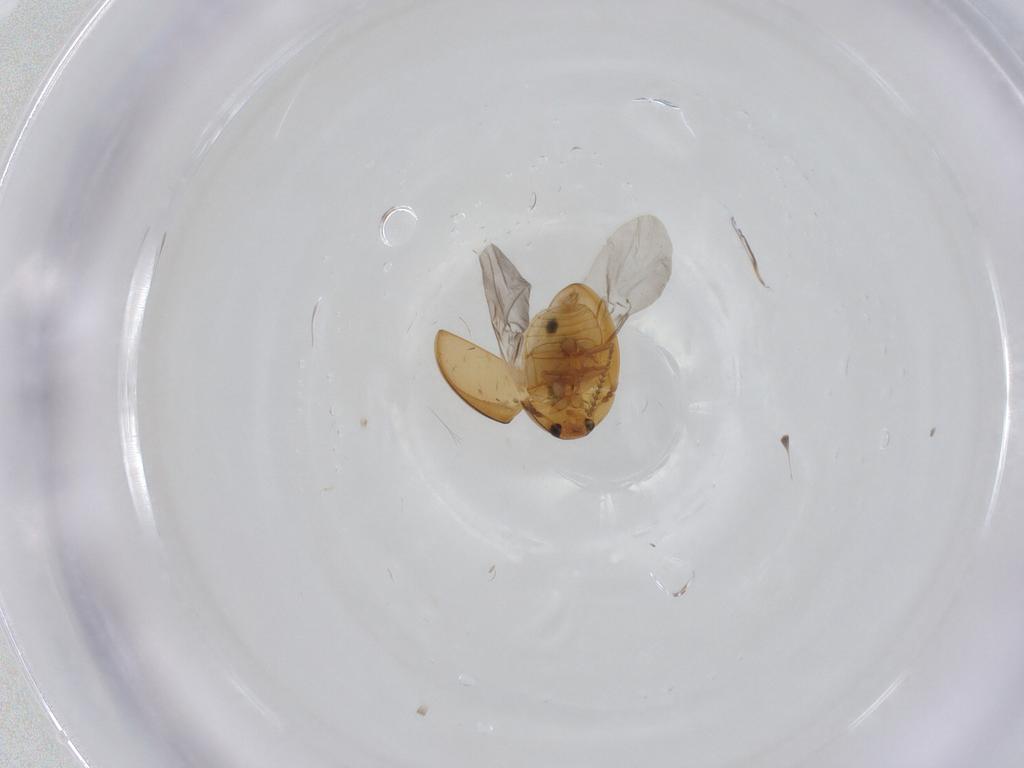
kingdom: Animalia
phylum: Arthropoda
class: Insecta
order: Coleoptera
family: Phalacridae
